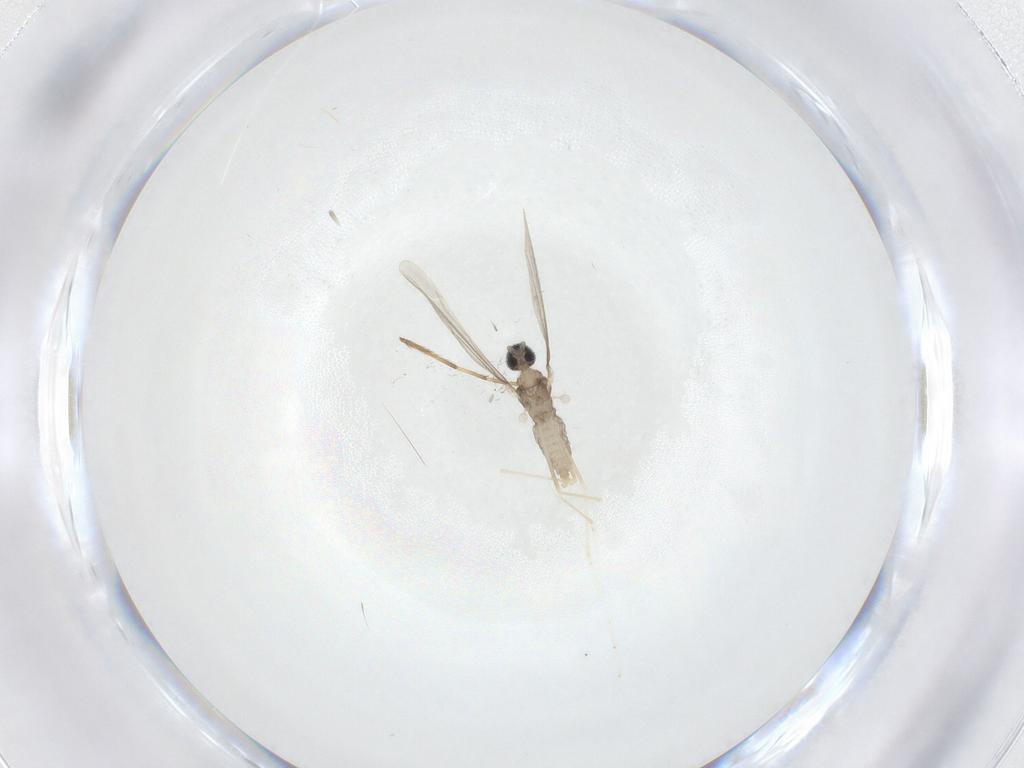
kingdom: Animalia
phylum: Arthropoda
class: Insecta
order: Diptera
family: Chironomidae
